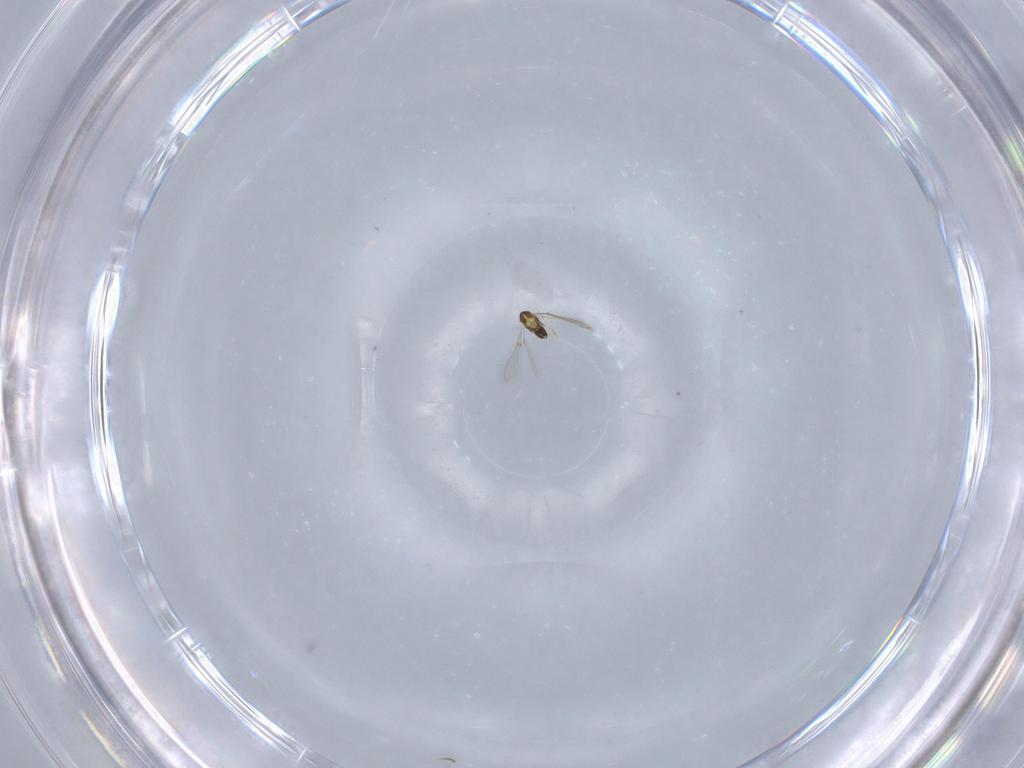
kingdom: Animalia
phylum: Arthropoda
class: Insecta
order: Hymenoptera
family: Mymaridae
